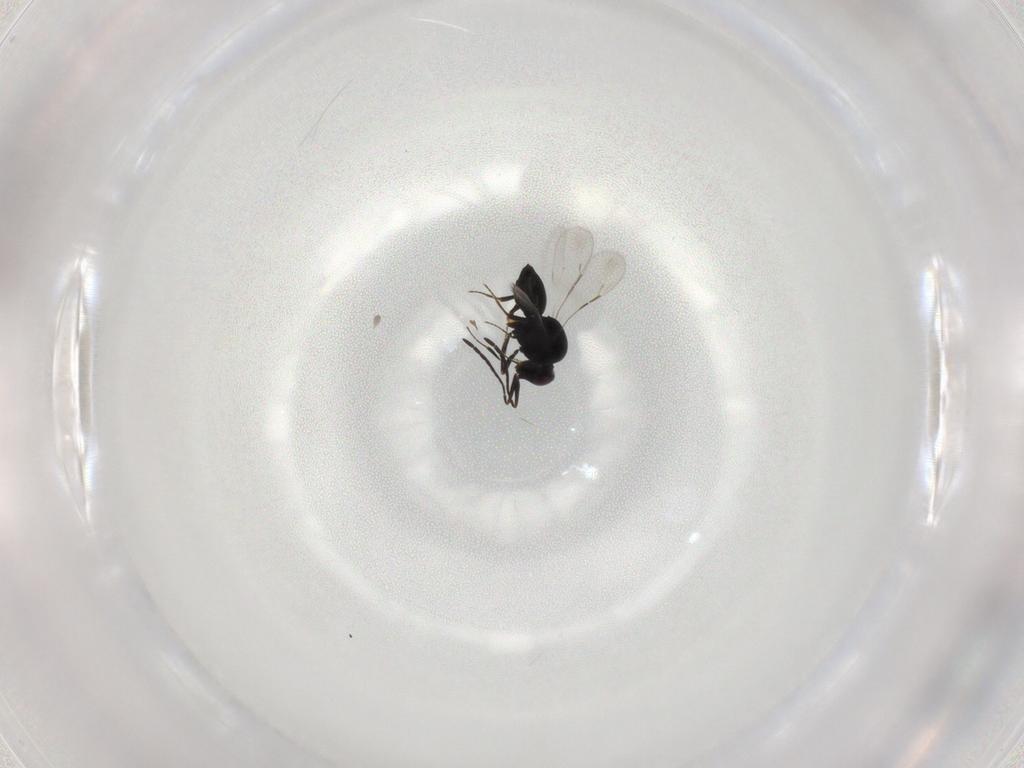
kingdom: Animalia
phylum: Arthropoda
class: Insecta
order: Hymenoptera
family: Ceraphronidae
